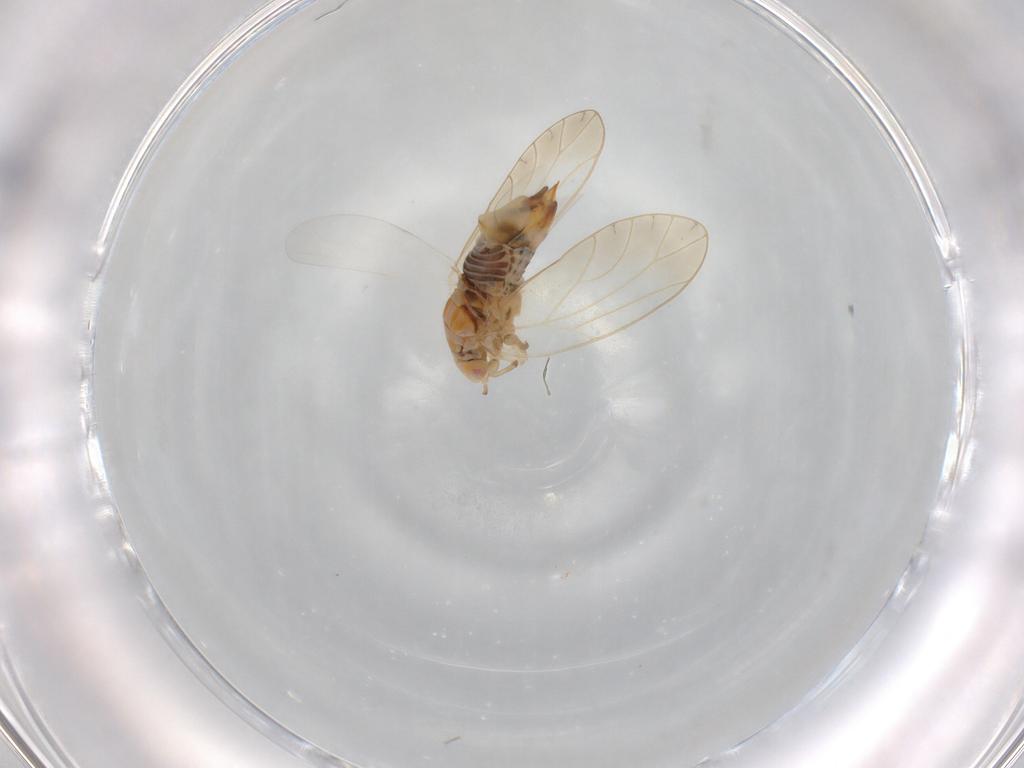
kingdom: Animalia
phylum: Arthropoda
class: Insecta
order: Hemiptera
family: Triozidae
